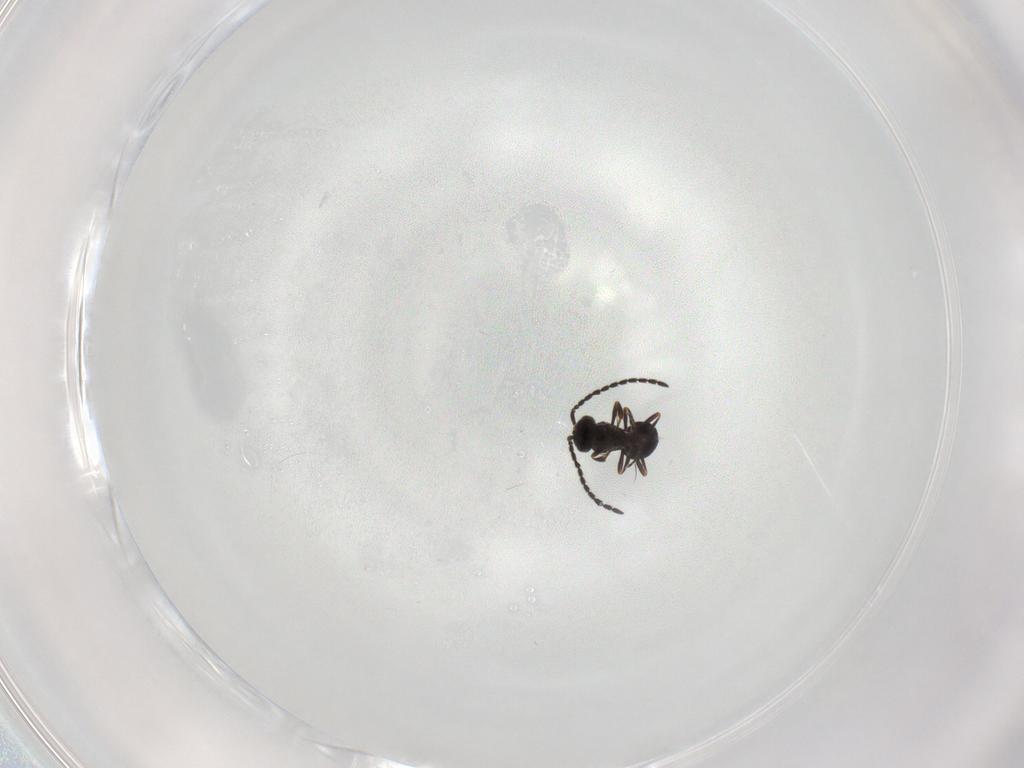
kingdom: Animalia
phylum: Arthropoda
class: Insecta
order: Hymenoptera
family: Scelionidae
